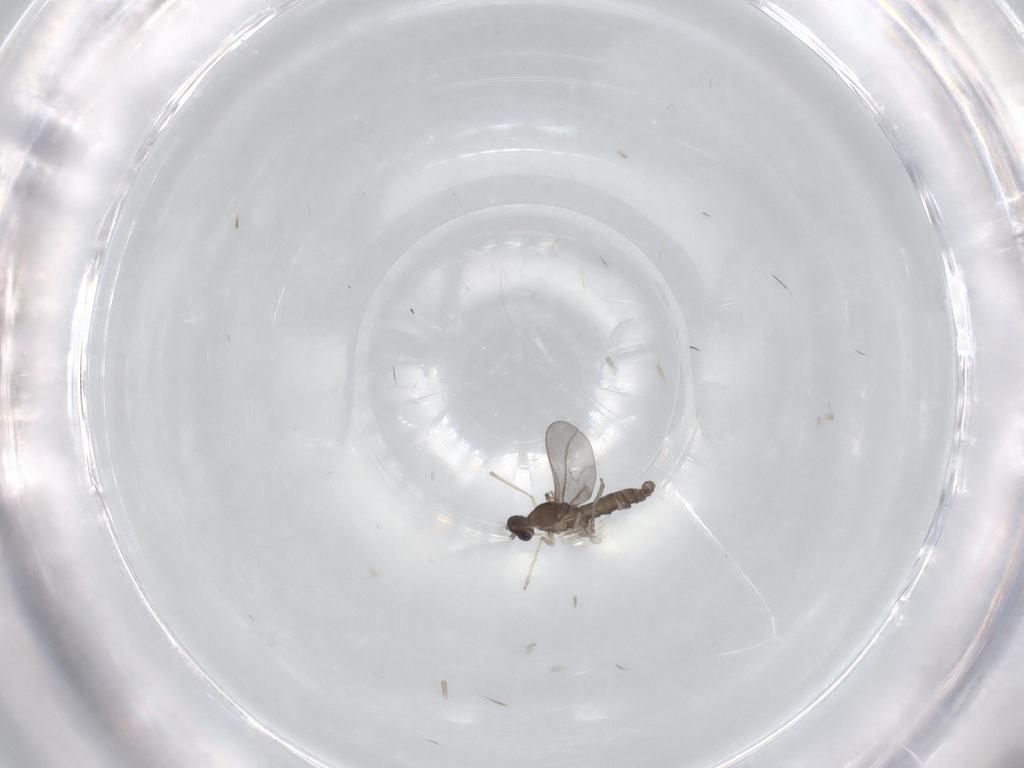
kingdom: Animalia
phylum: Arthropoda
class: Insecta
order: Diptera
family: Cecidomyiidae
